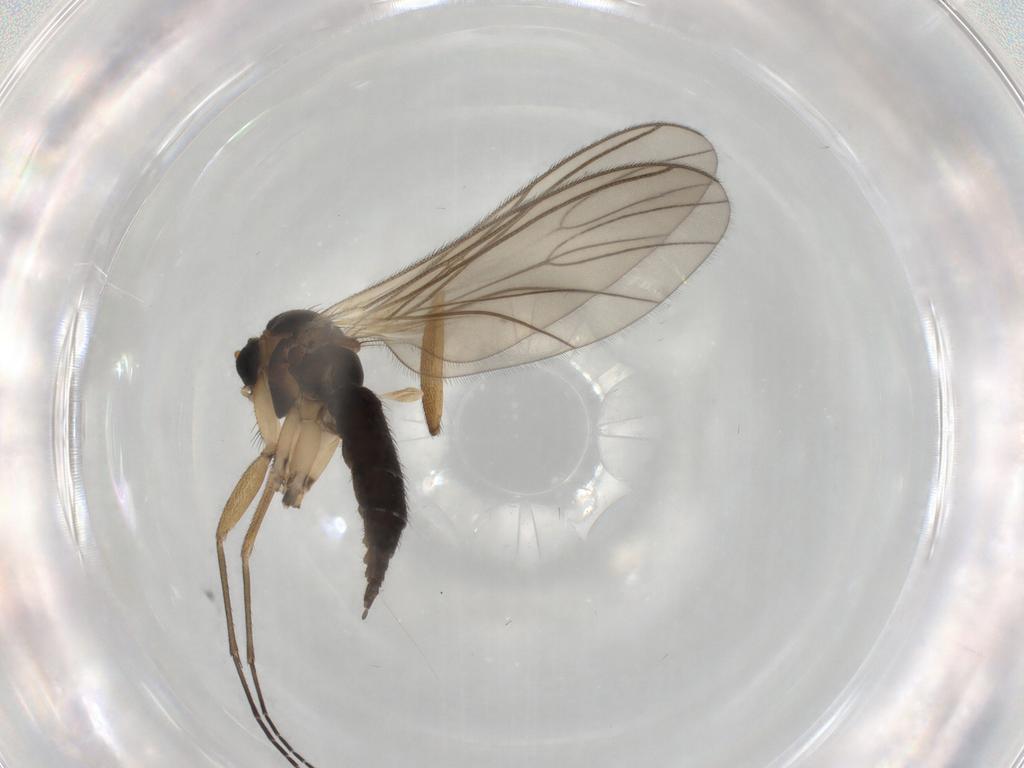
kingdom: Animalia
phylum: Arthropoda
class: Insecta
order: Diptera
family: Sciaridae
